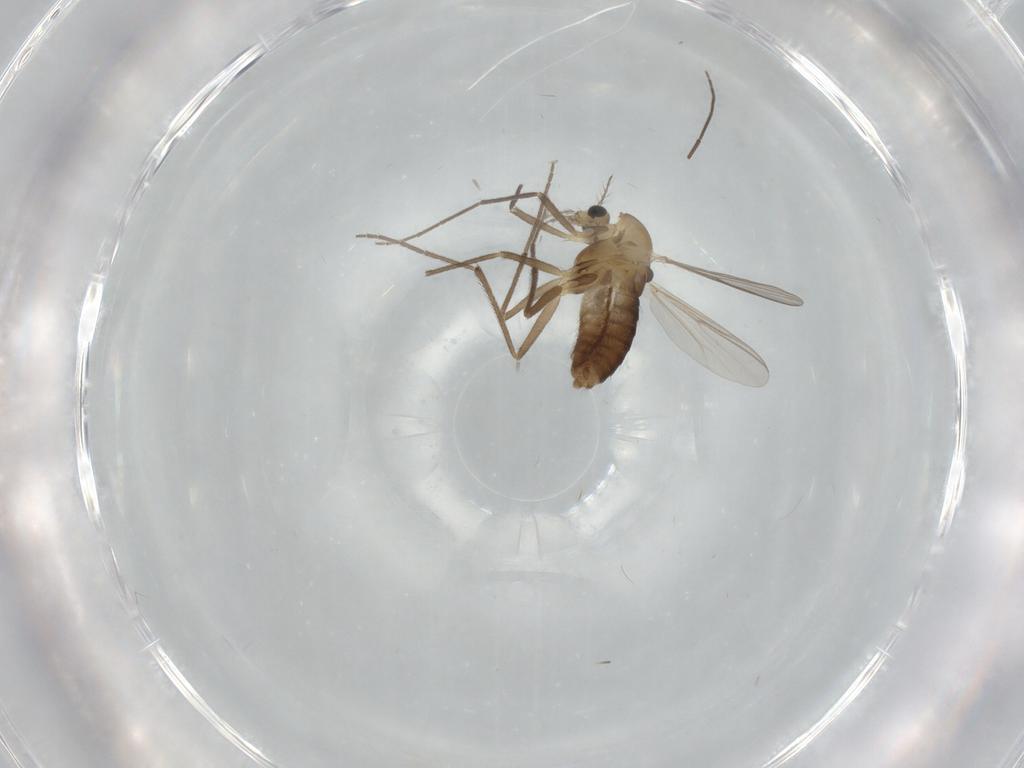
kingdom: Animalia
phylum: Arthropoda
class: Insecta
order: Diptera
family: Chironomidae
